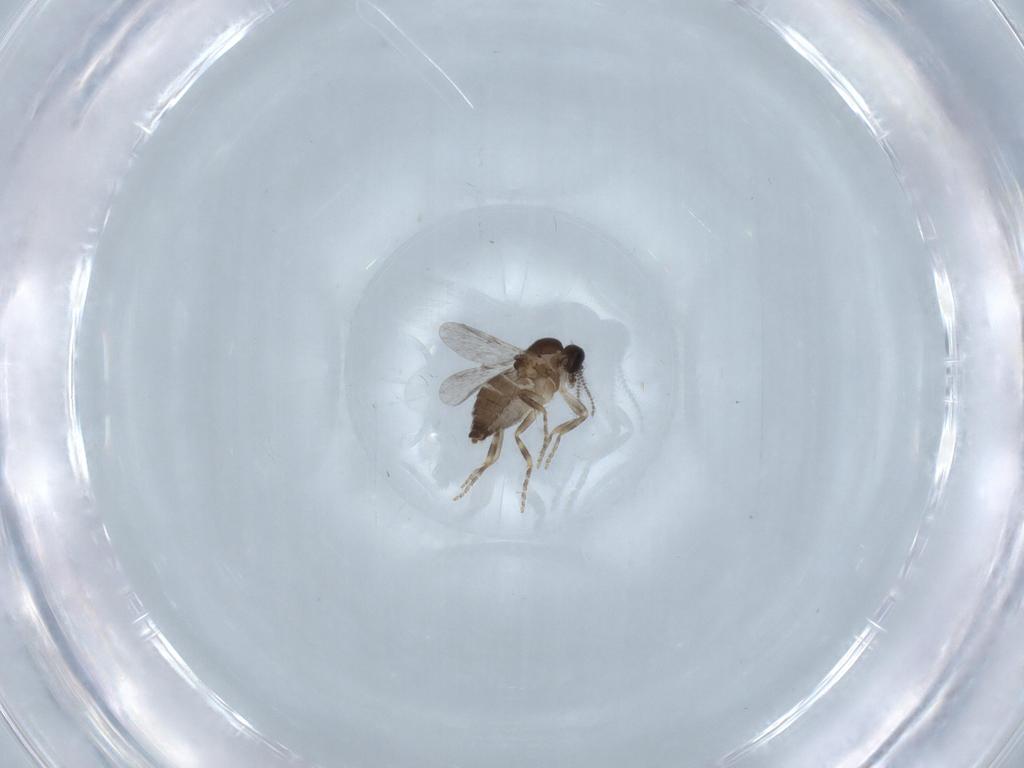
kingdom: Animalia
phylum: Arthropoda
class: Insecta
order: Diptera
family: Ceratopogonidae
